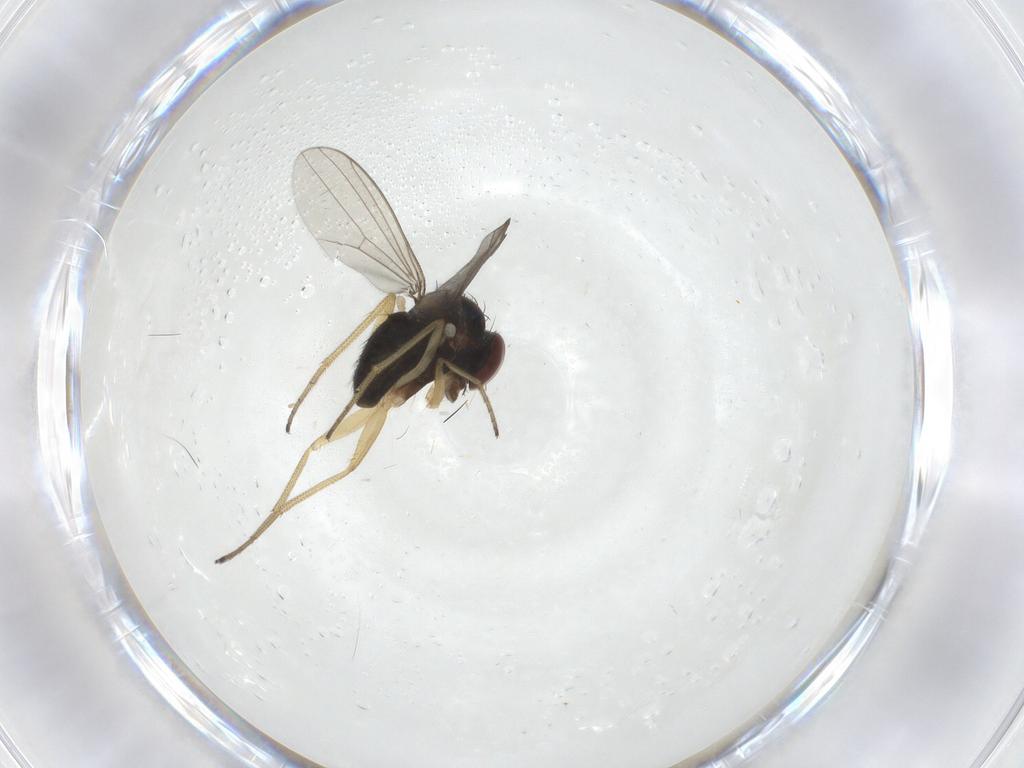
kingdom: Animalia
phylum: Arthropoda
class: Insecta
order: Diptera
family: Dolichopodidae
